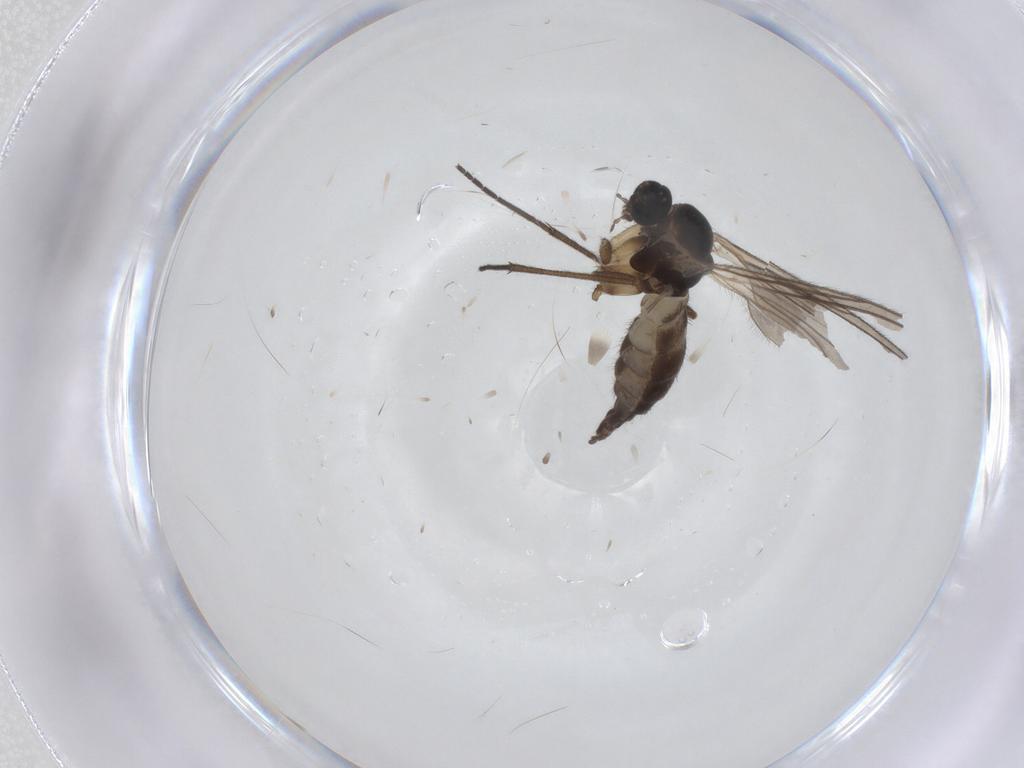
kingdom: Animalia
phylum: Arthropoda
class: Insecta
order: Diptera
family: Sciaridae
